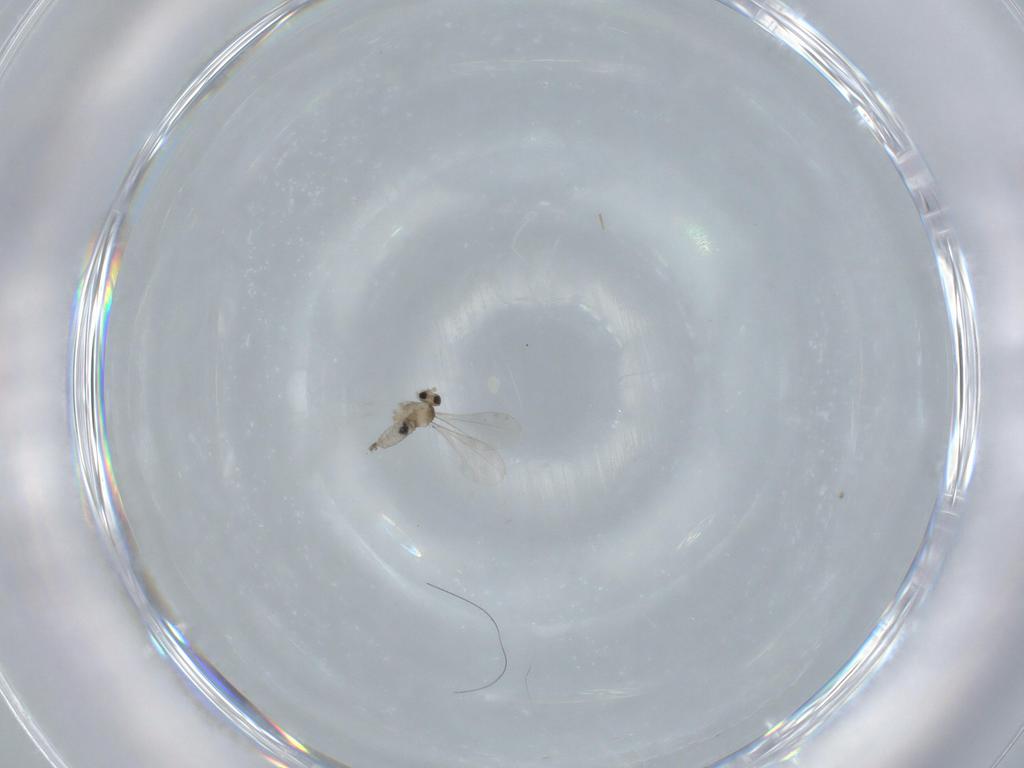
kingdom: Animalia
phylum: Arthropoda
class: Insecta
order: Diptera
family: Cecidomyiidae
